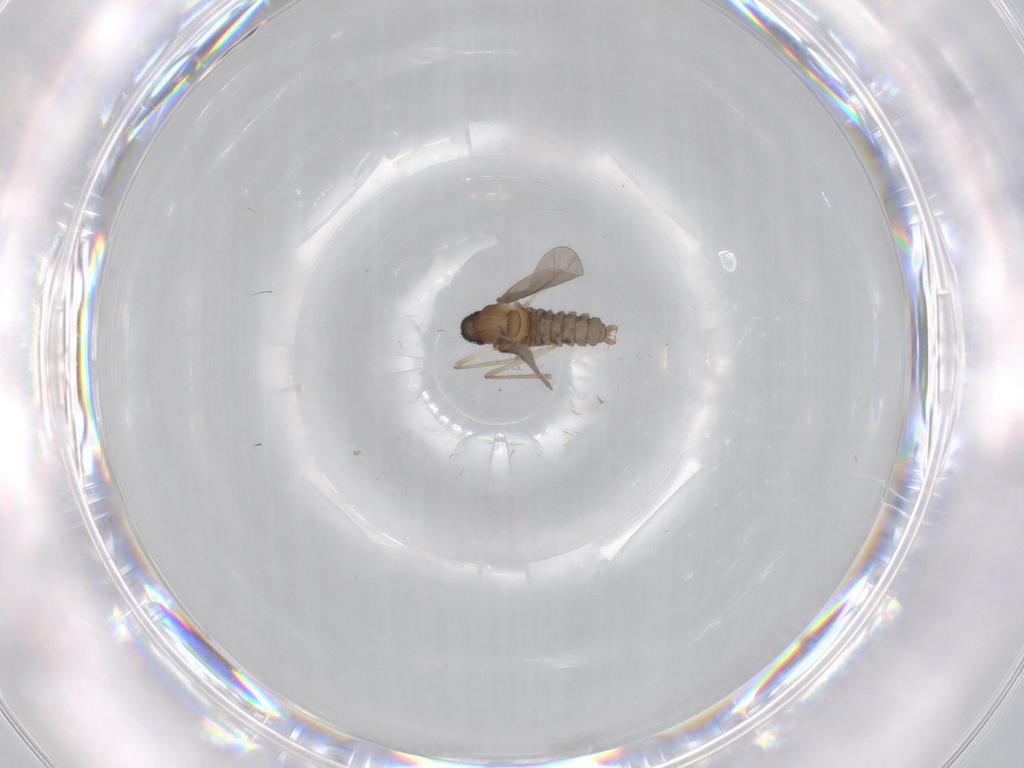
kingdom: Animalia
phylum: Arthropoda
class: Insecta
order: Diptera
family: Cecidomyiidae
